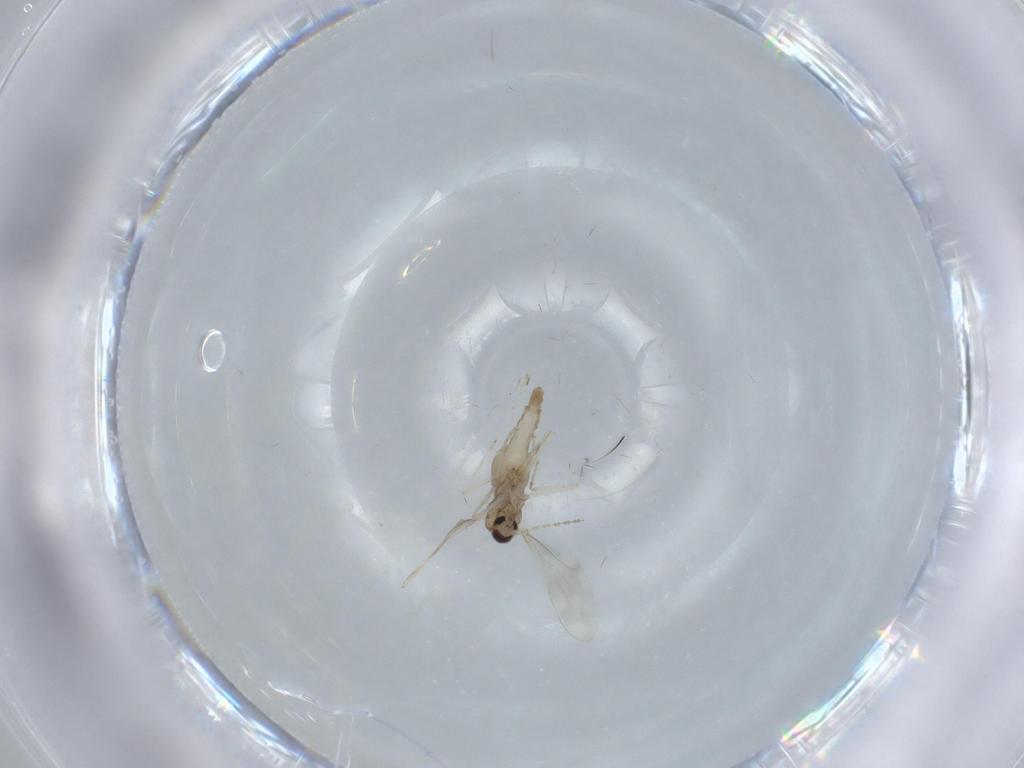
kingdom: Animalia
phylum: Arthropoda
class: Insecta
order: Diptera
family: Cecidomyiidae
